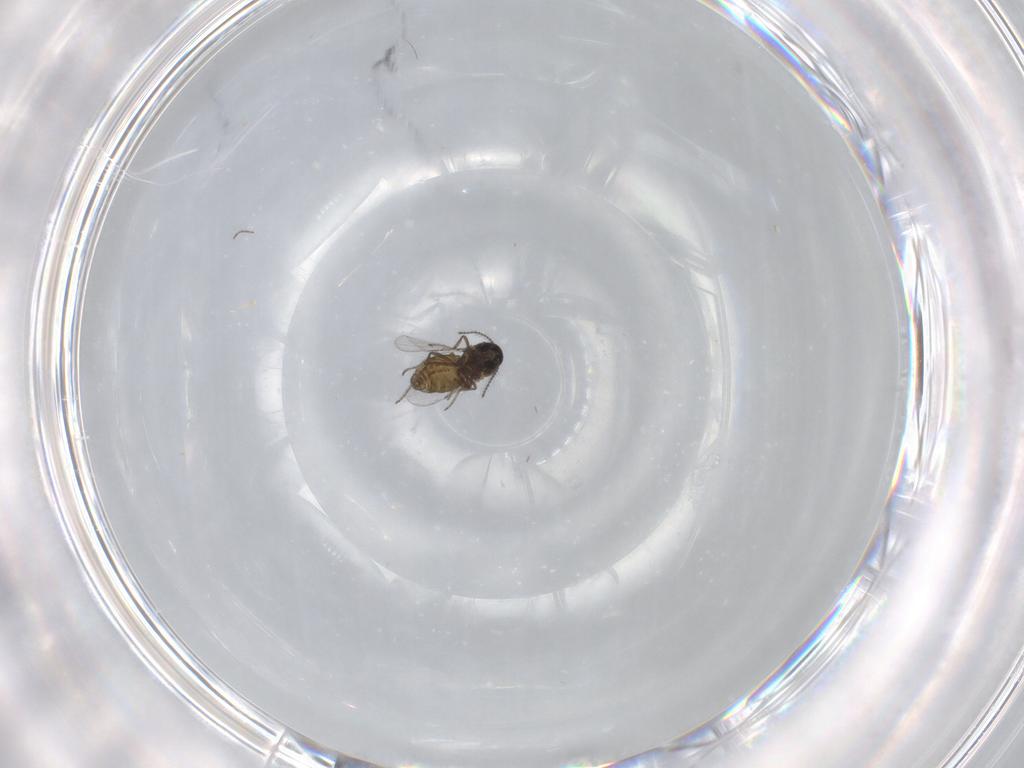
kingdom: Animalia
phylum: Arthropoda
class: Insecta
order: Diptera
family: Ceratopogonidae
